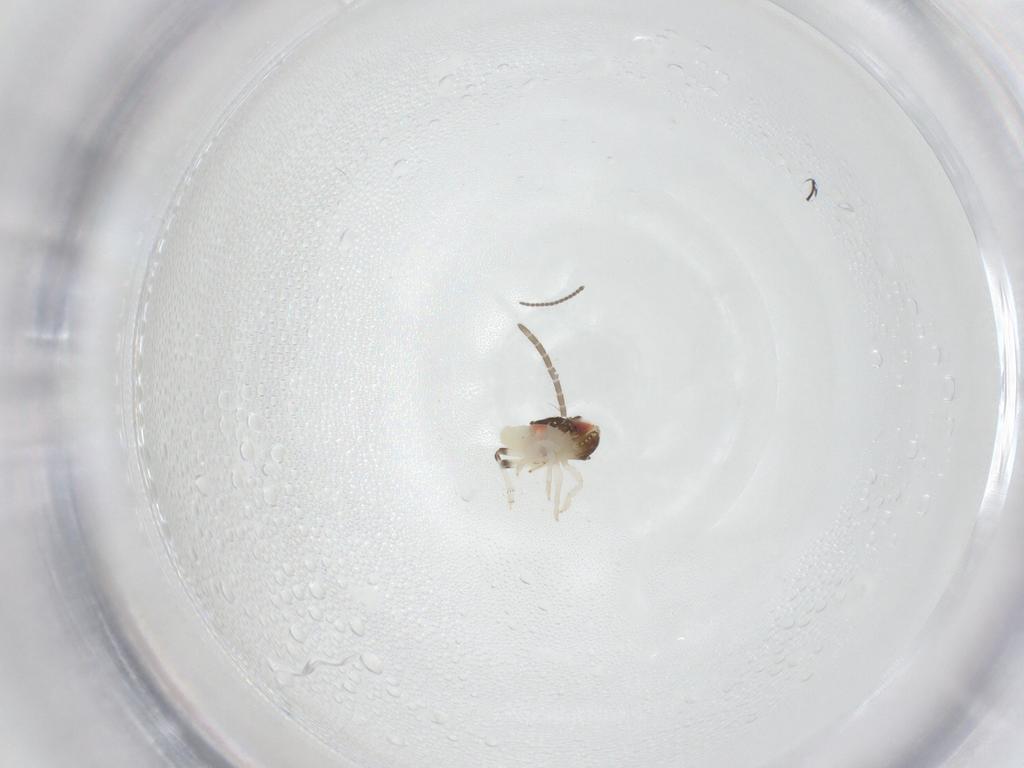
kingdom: Animalia
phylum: Arthropoda
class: Insecta
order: Hemiptera
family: Nogodinidae
